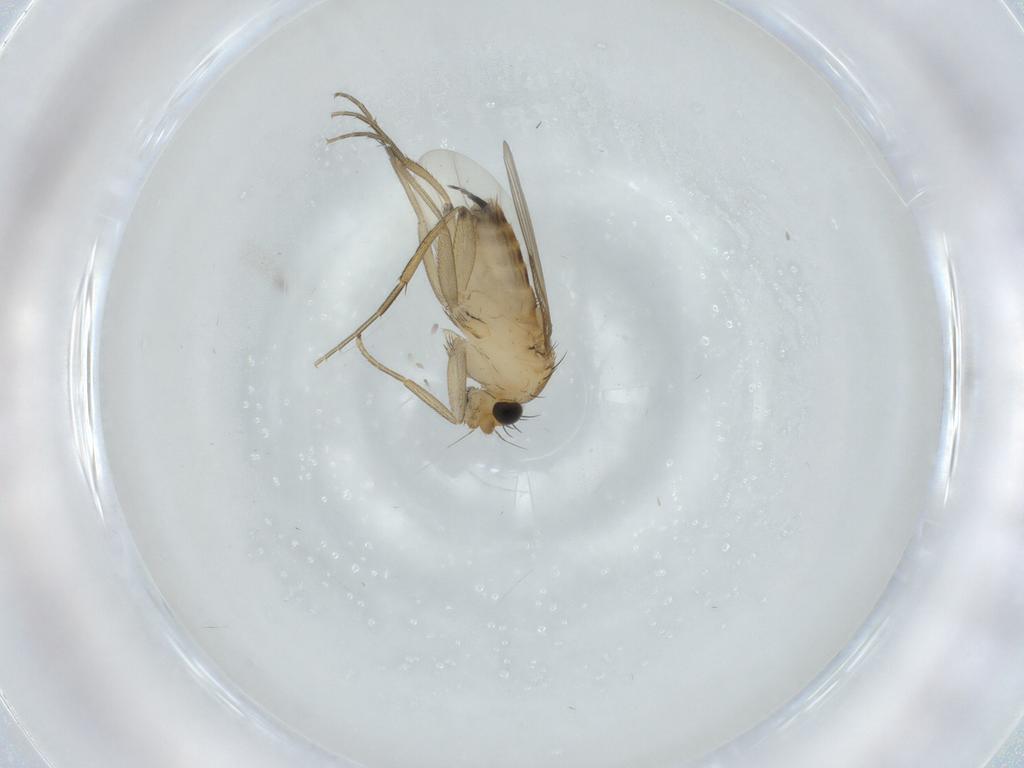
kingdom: Animalia
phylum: Arthropoda
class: Insecta
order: Diptera
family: Phoridae
